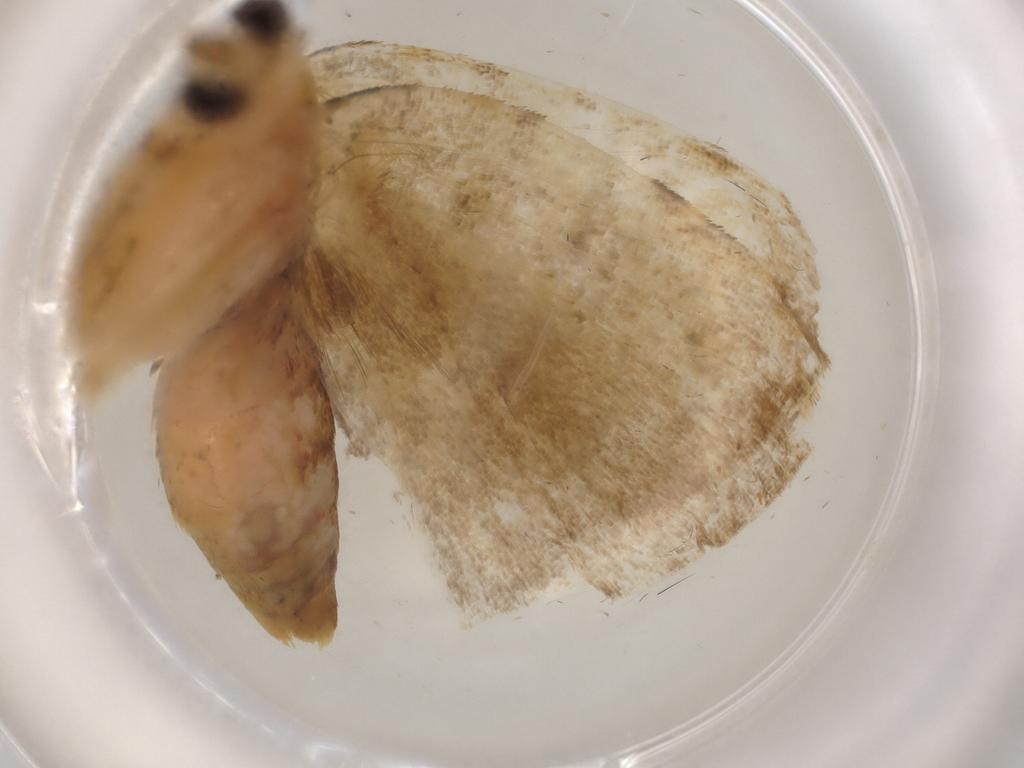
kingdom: Animalia
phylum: Arthropoda
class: Insecta
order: Lepidoptera
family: Erebidae
